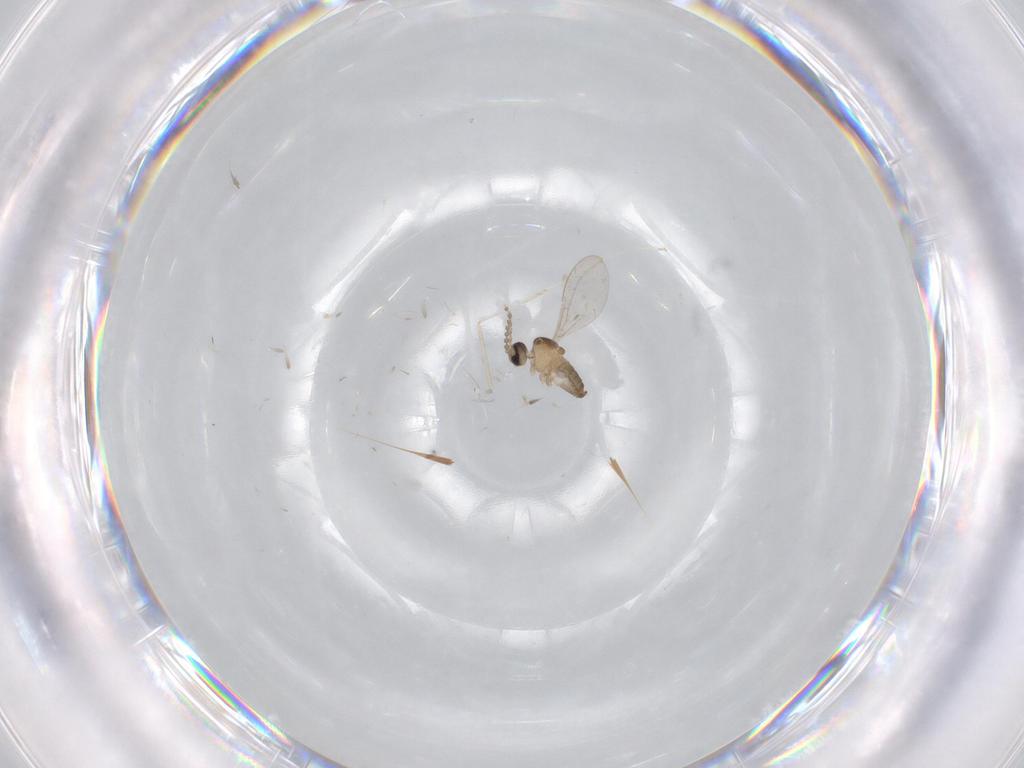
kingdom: Animalia
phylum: Arthropoda
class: Insecta
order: Diptera
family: Cecidomyiidae
